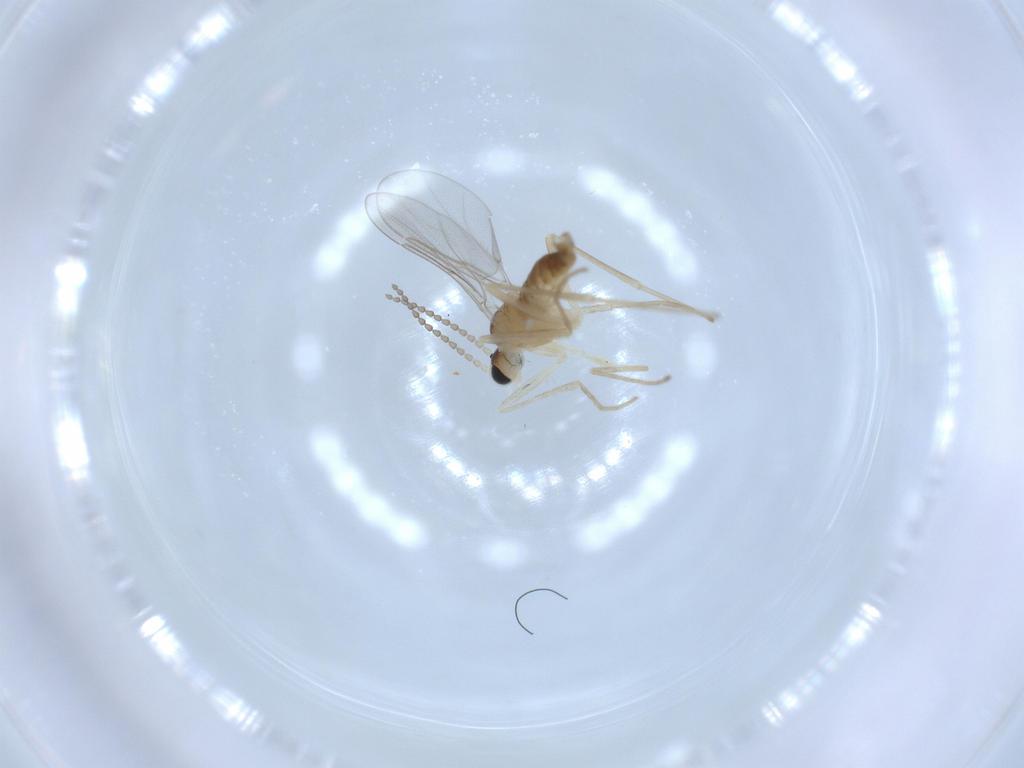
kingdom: Animalia
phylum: Arthropoda
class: Insecta
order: Diptera
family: Cecidomyiidae
